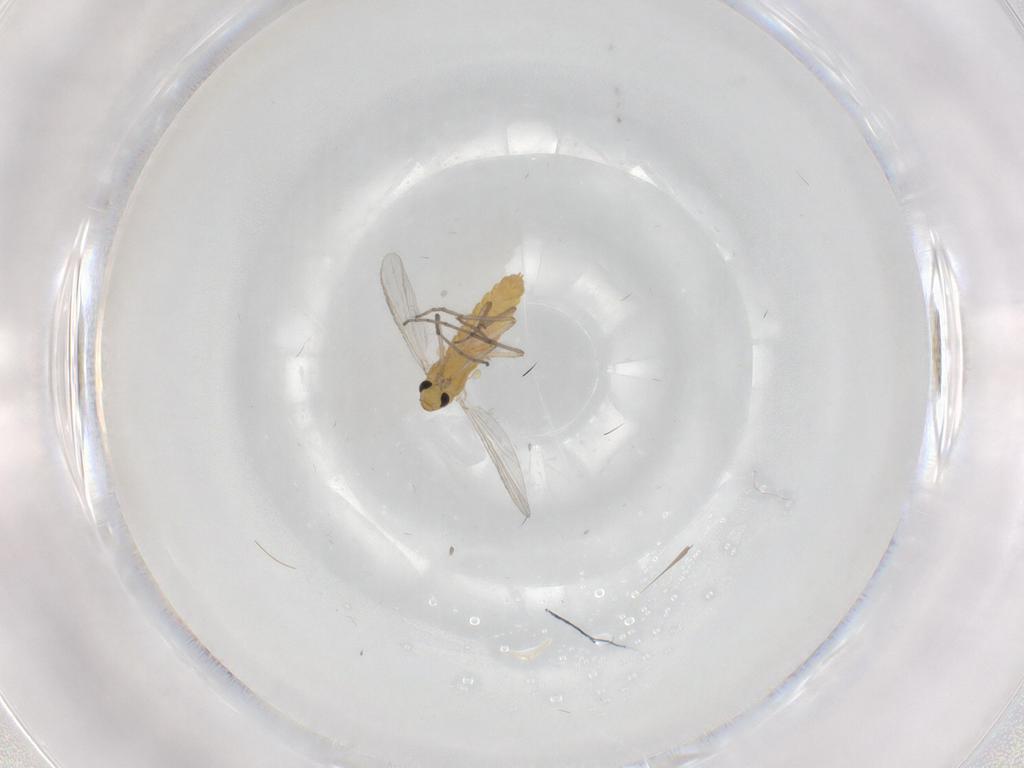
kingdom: Animalia
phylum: Arthropoda
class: Insecta
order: Diptera
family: Chironomidae
